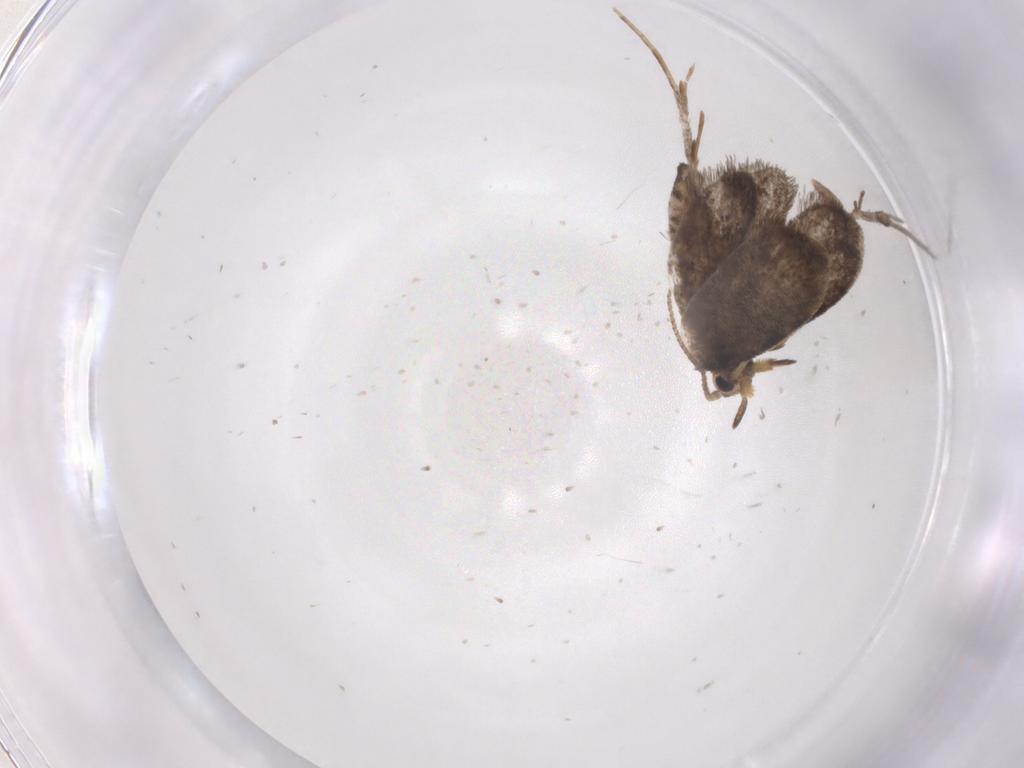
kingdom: Animalia
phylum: Arthropoda
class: Insecta
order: Lepidoptera
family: Psychidae
